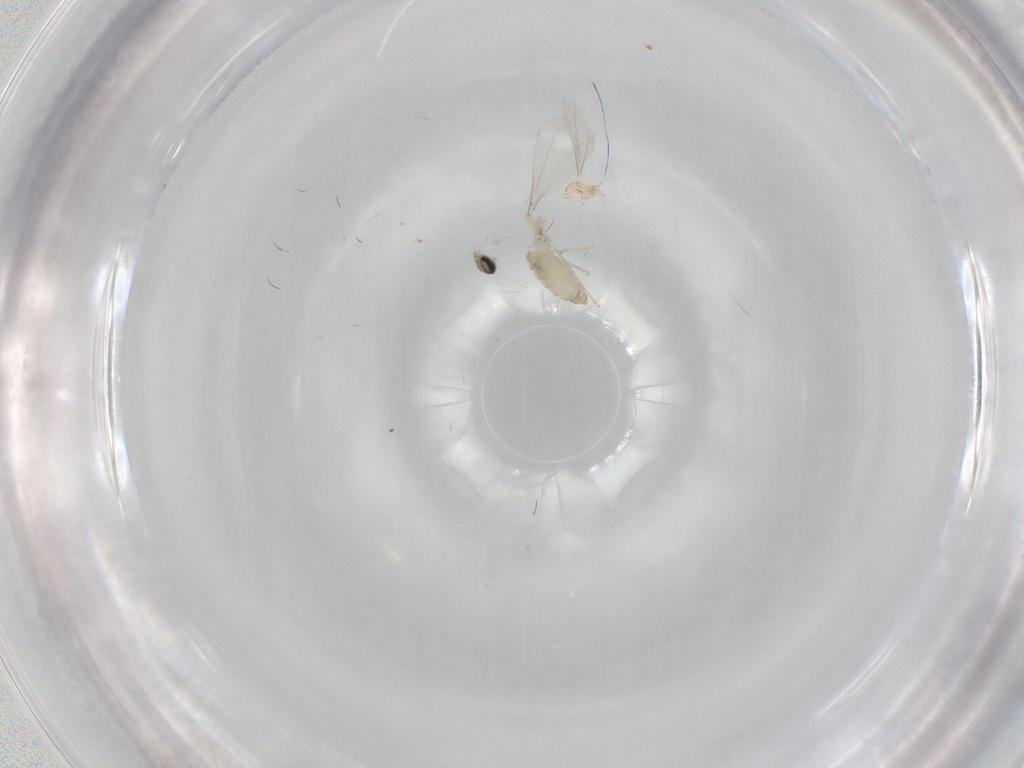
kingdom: Animalia
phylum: Arthropoda
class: Insecta
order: Diptera
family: Cecidomyiidae
